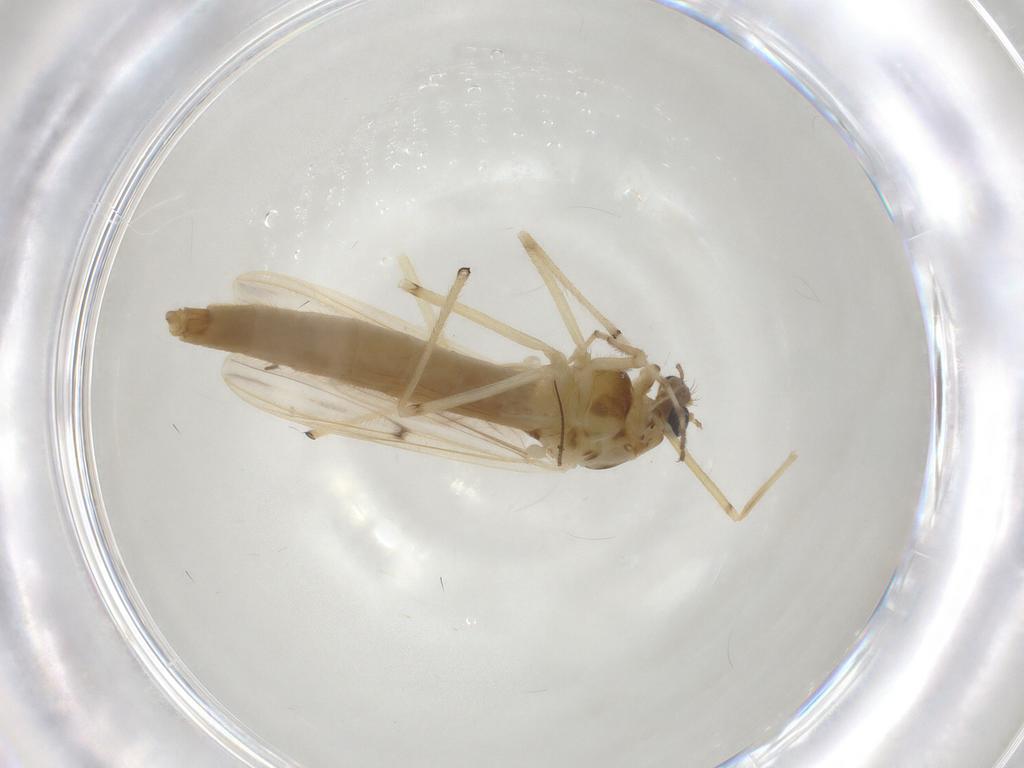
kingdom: Animalia
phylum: Arthropoda
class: Insecta
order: Diptera
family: Chironomidae
